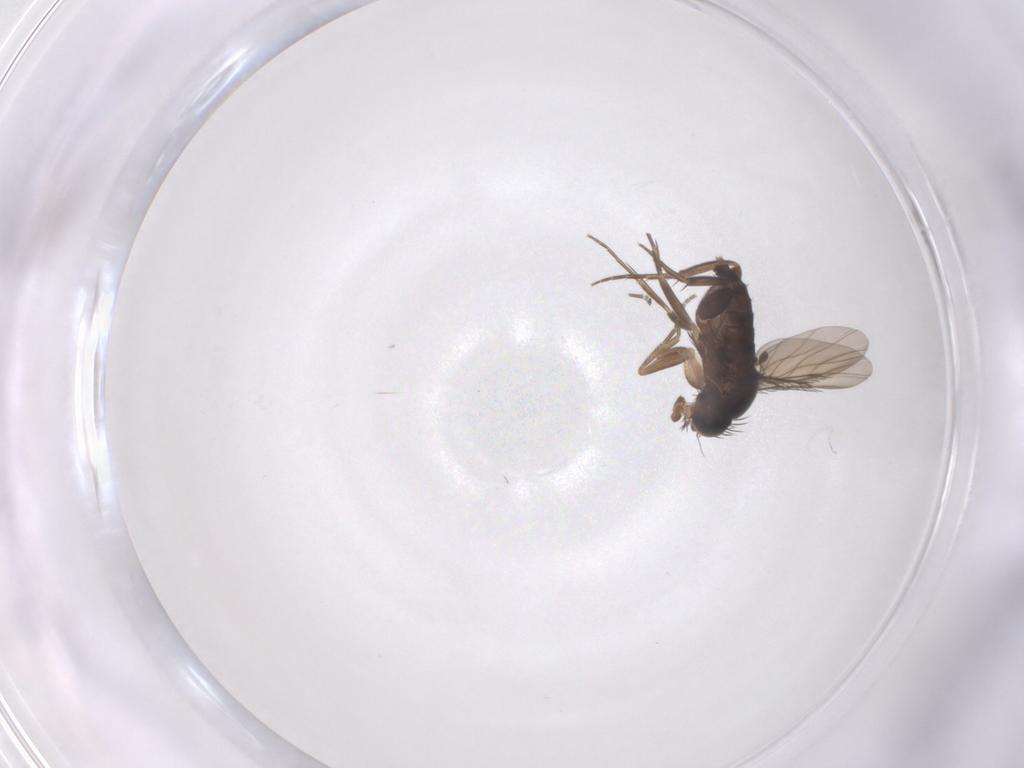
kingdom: Animalia
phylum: Arthropoda
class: Insecta
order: Diptera
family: Phoridae
